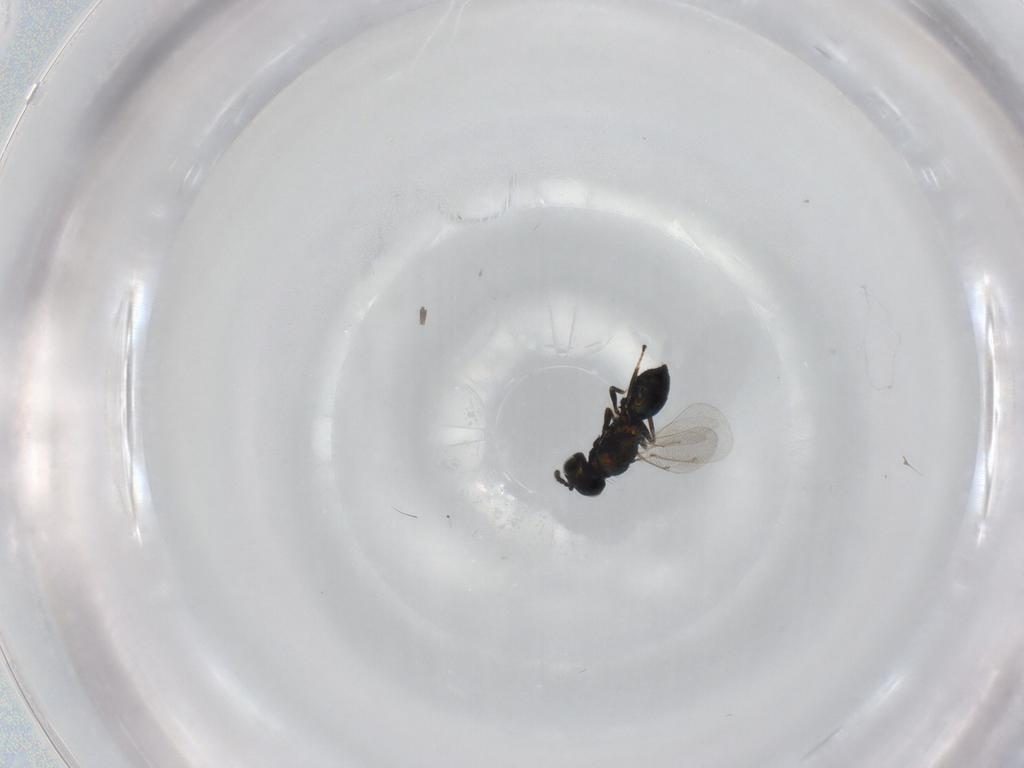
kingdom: Animalia
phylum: Arthropoda
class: Insecta
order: Hymenoptera
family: Eulophidae
